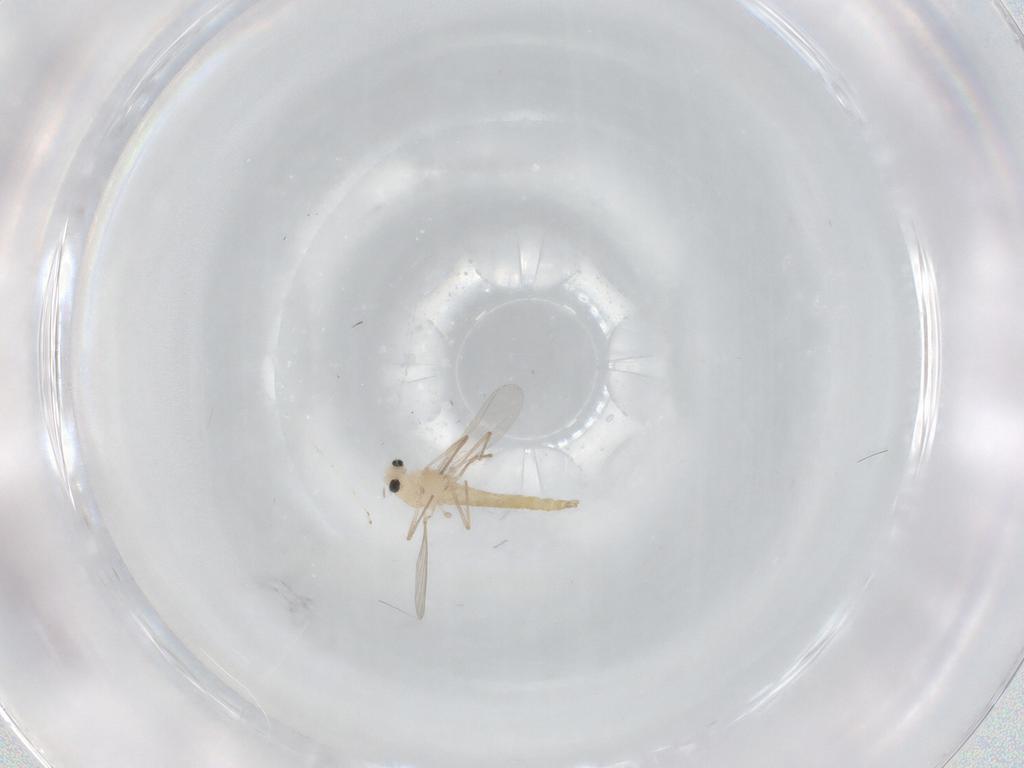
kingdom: Animalia
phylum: Arthropoda
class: Insecta
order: Diptera
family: Chironomidae
